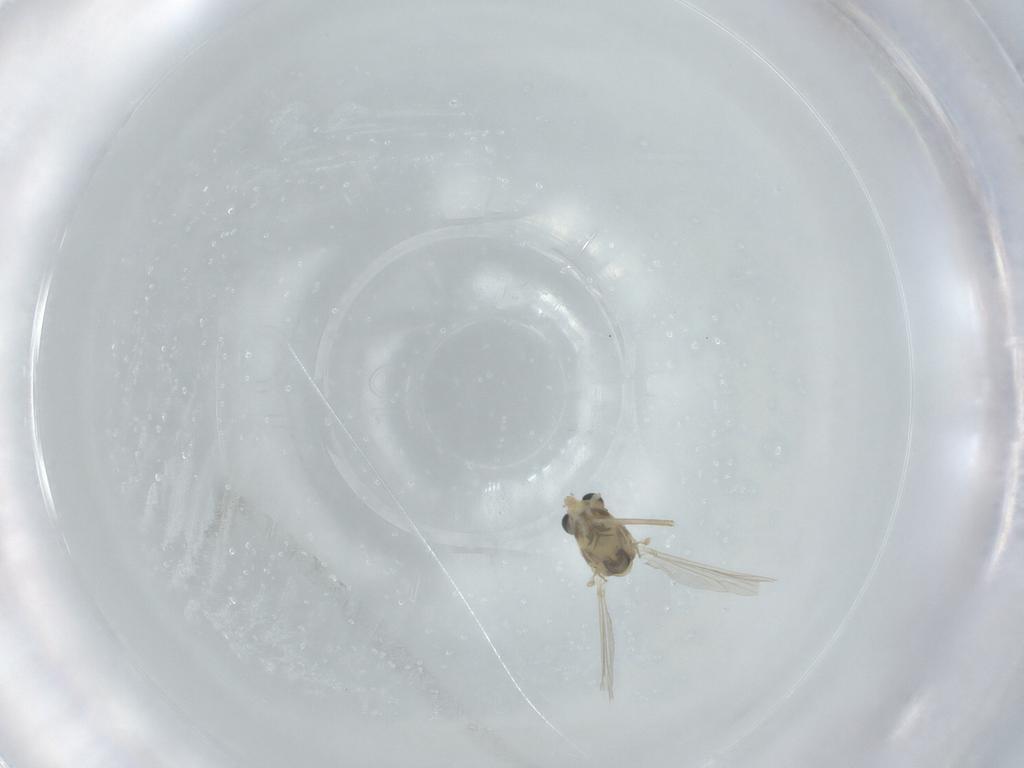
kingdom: Animalia
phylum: Arthropoda
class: Insecta
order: Diptera
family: Chironomidae
